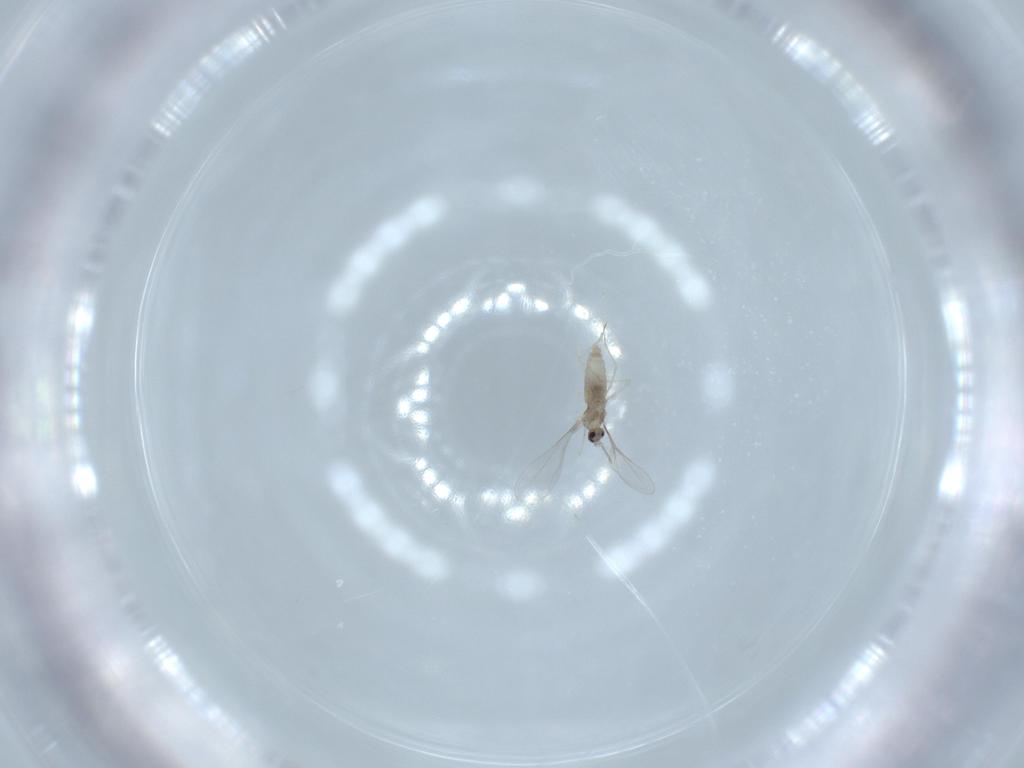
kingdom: Animalia
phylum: Arthropoda
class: Insecta
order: Diptera
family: Cecidomyiidae
